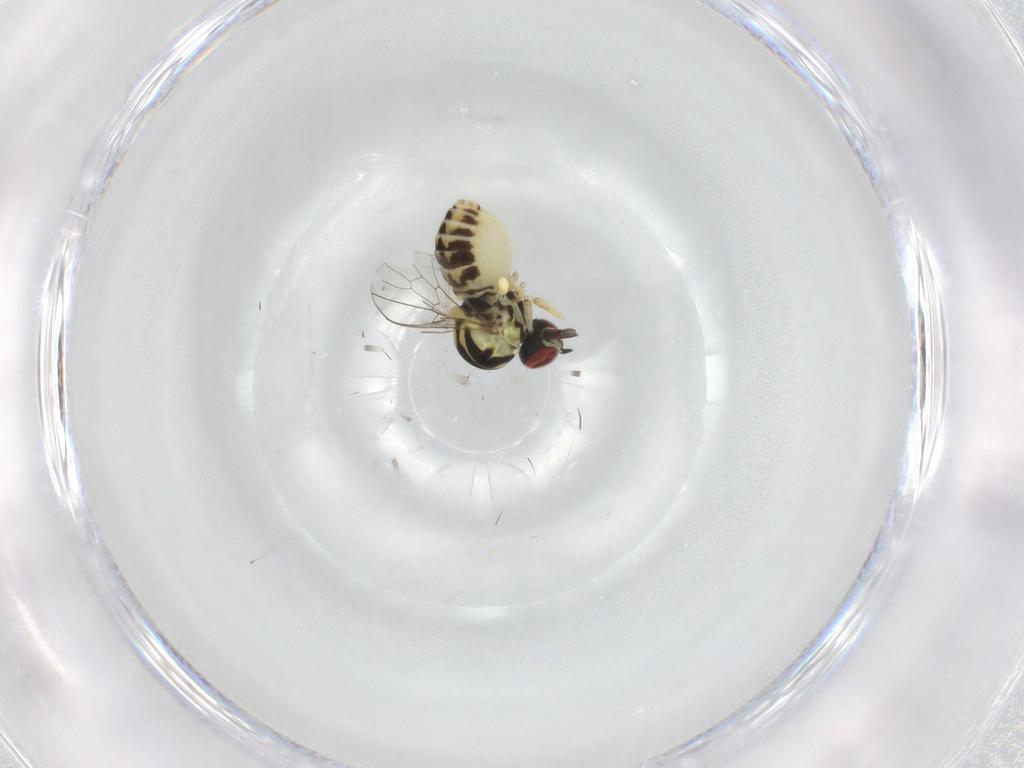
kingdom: Animalia
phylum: Arthropoda
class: Insecta
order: Diptera
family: Bombyliidae
